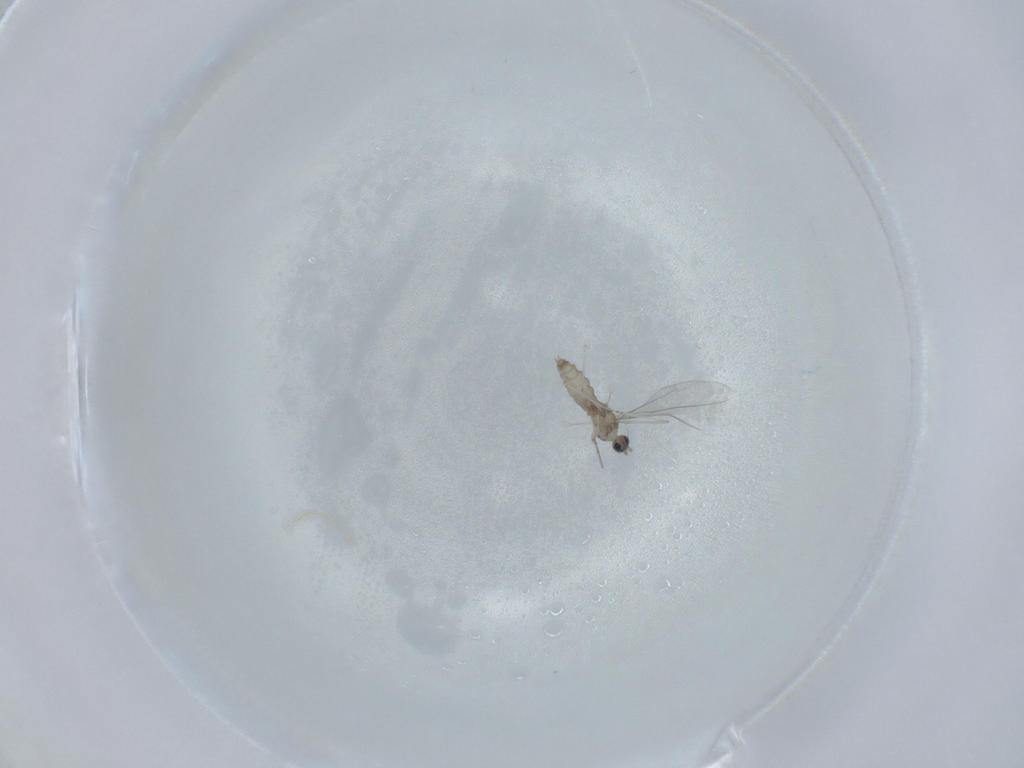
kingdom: Animalia
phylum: Arthropoda
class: Insecta
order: Diptera
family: Cecidomyiidae
